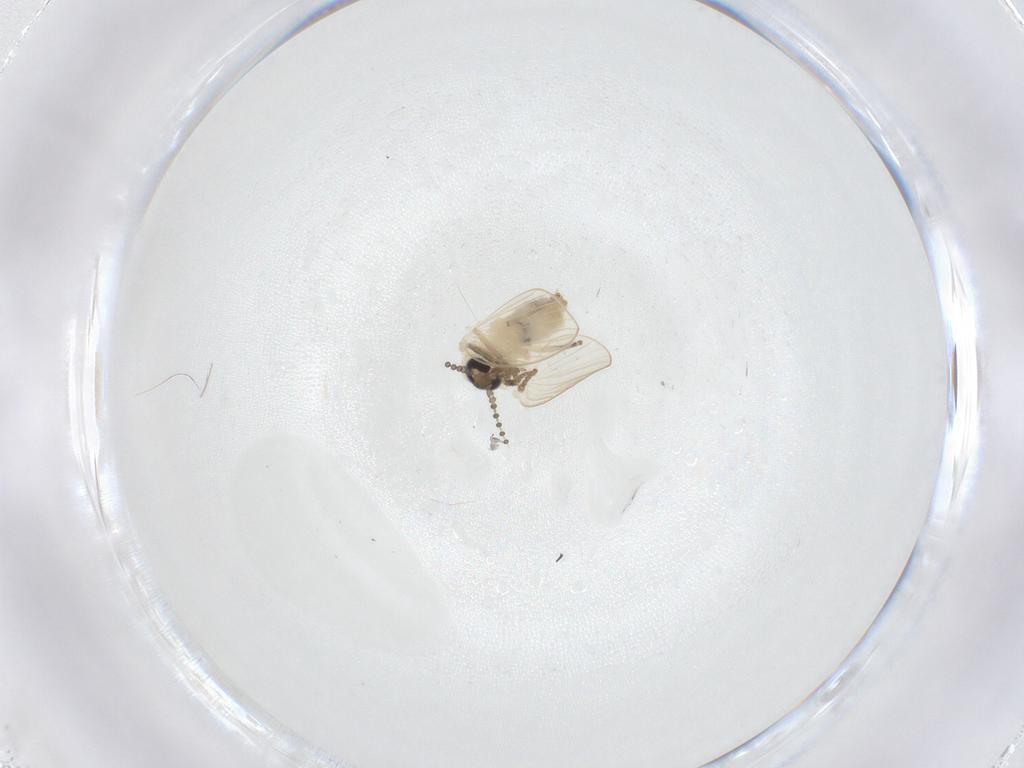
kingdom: Animalia
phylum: Arthropoda
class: Insecta
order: Diptera
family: Psychodidae
